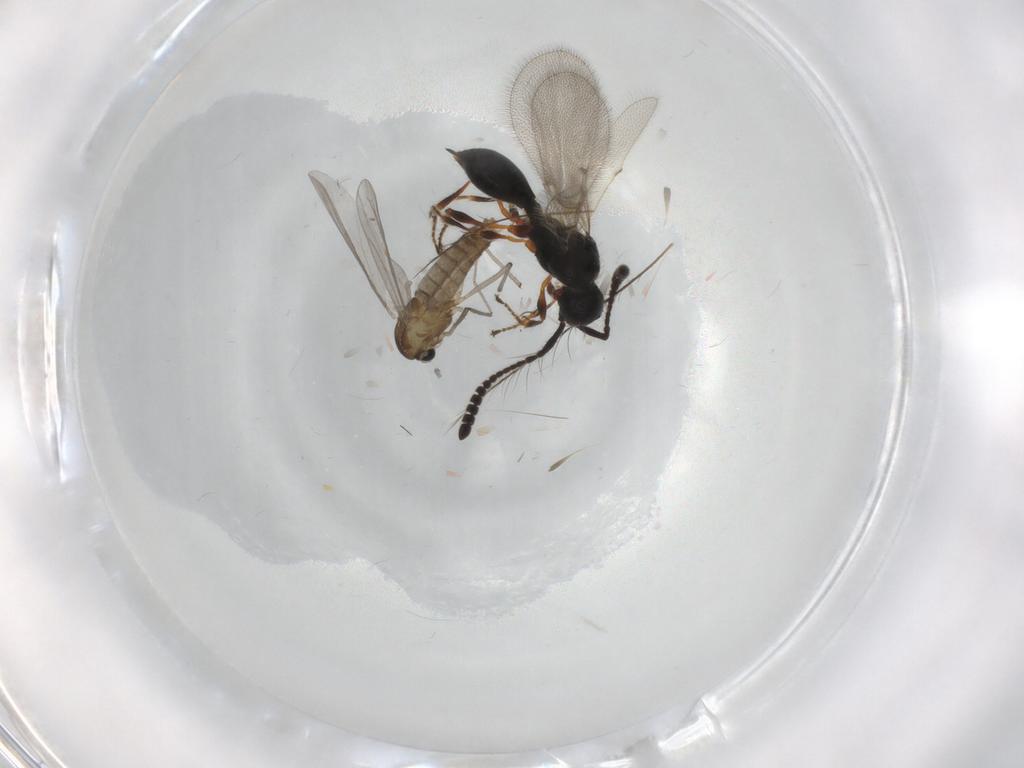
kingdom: Animalia
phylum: Arthropoda
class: Insecta
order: Diptera
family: Chironomidae
